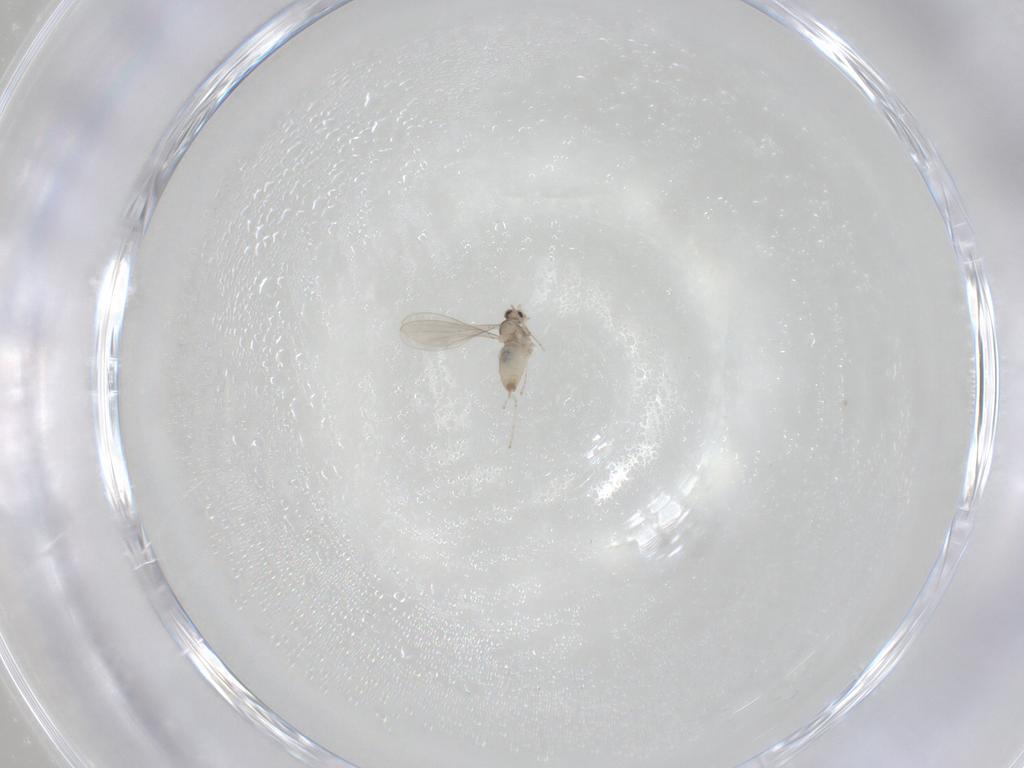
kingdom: Animalia
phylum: Arthropoda
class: Insecta
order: Diptera
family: Cecidomyiidae
